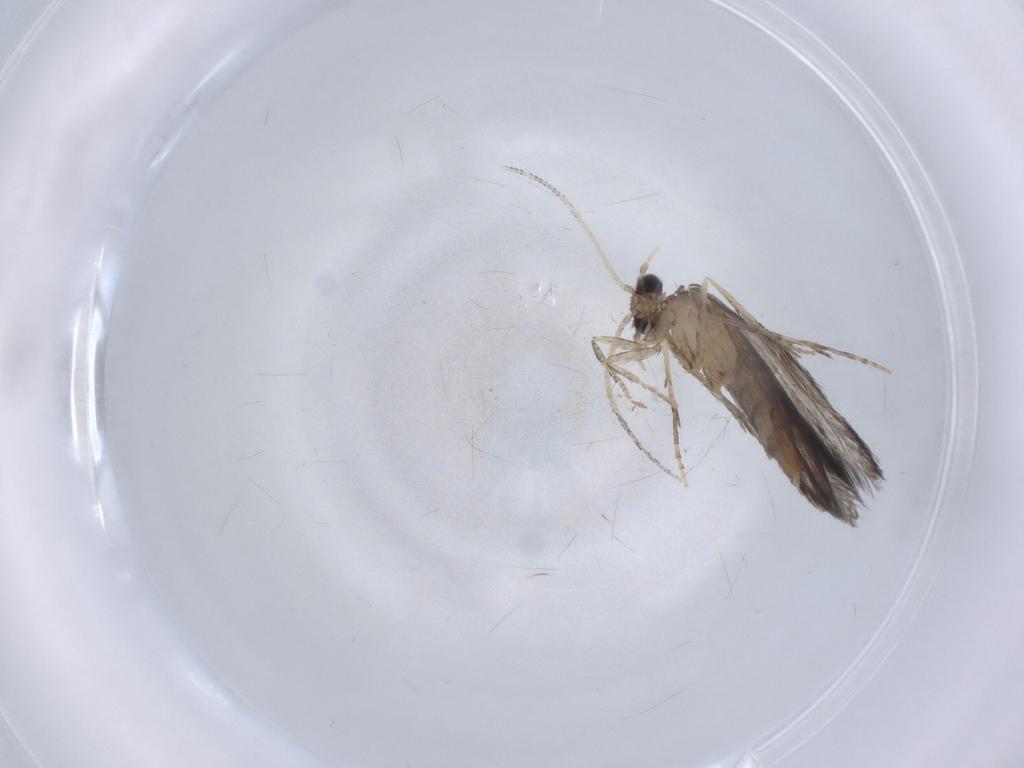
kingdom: Animalia
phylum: Arthropoda
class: Insecta
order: Trichoptera
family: Hydroptilidae
